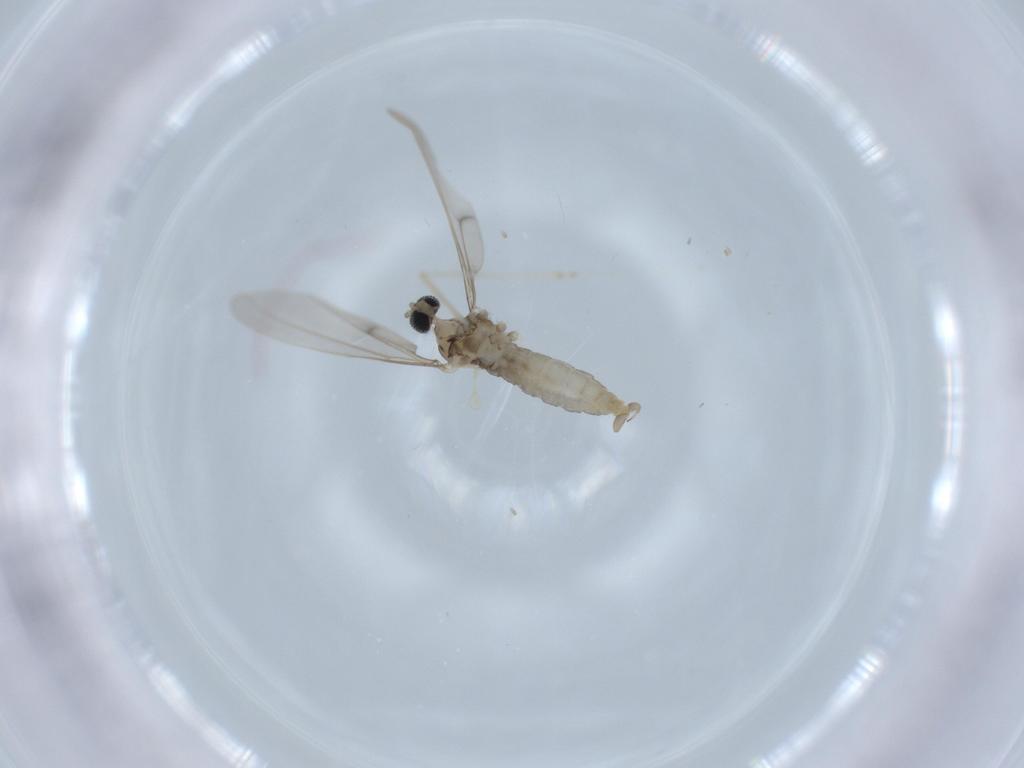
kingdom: Animalia
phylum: Arthropoda
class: Insecta
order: Diptera
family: Cecidomyiidae
